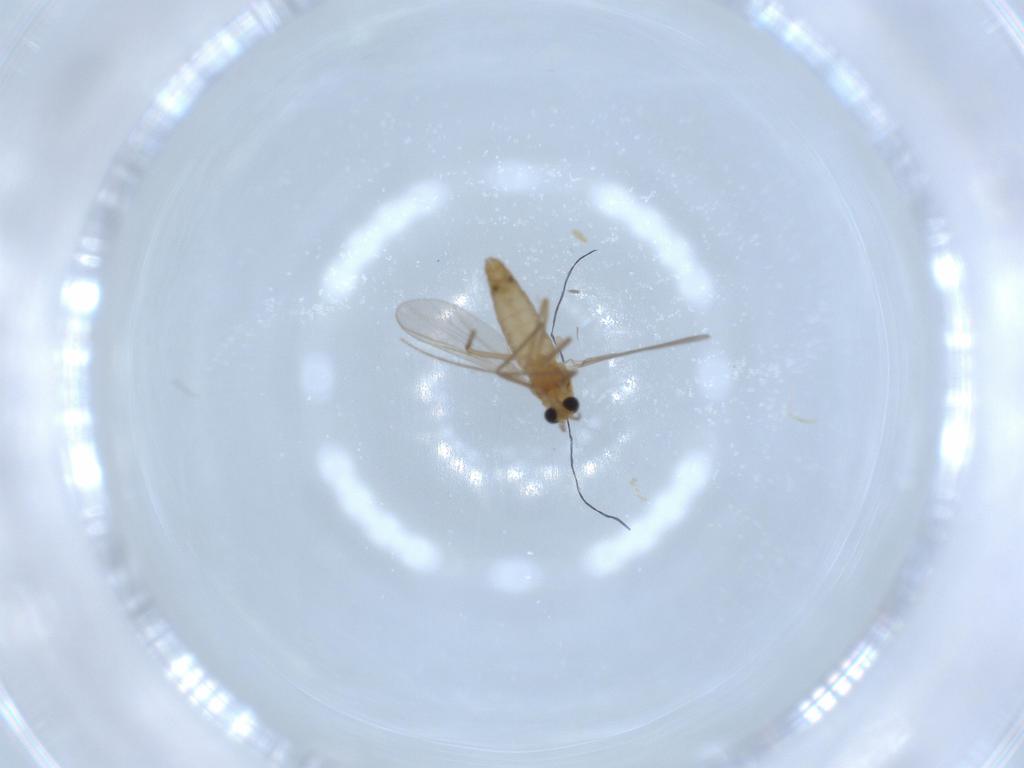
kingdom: Animalia
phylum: Arthropoda
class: Insecta
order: Diptera
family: Chironomidae
